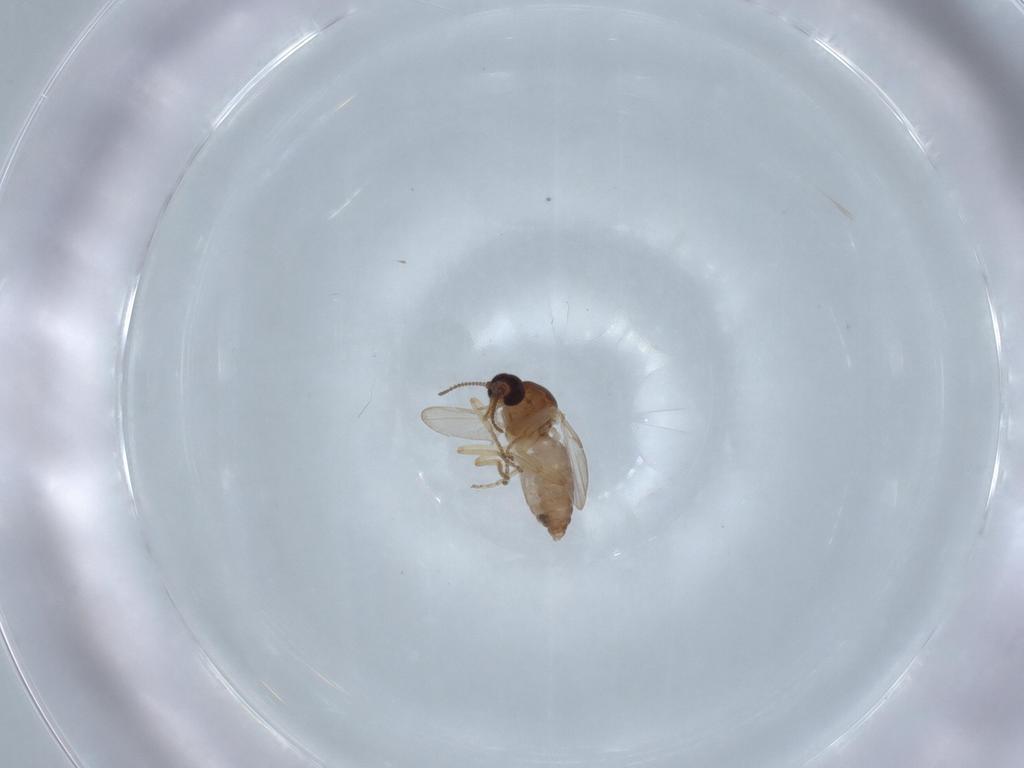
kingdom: Animalia
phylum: Arthropoda
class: Insecta
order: Diptera
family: Ceratopogonidae
